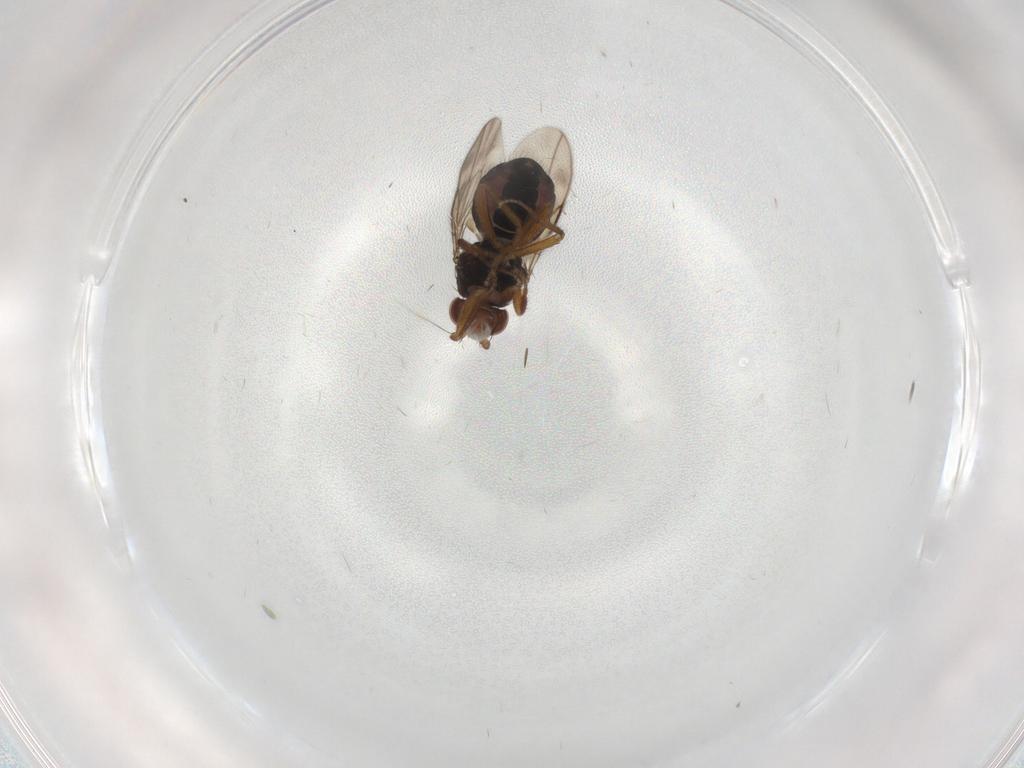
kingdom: Animalia
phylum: Arthropoda
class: Insecta
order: Diptera
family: Sphaeroceridae
